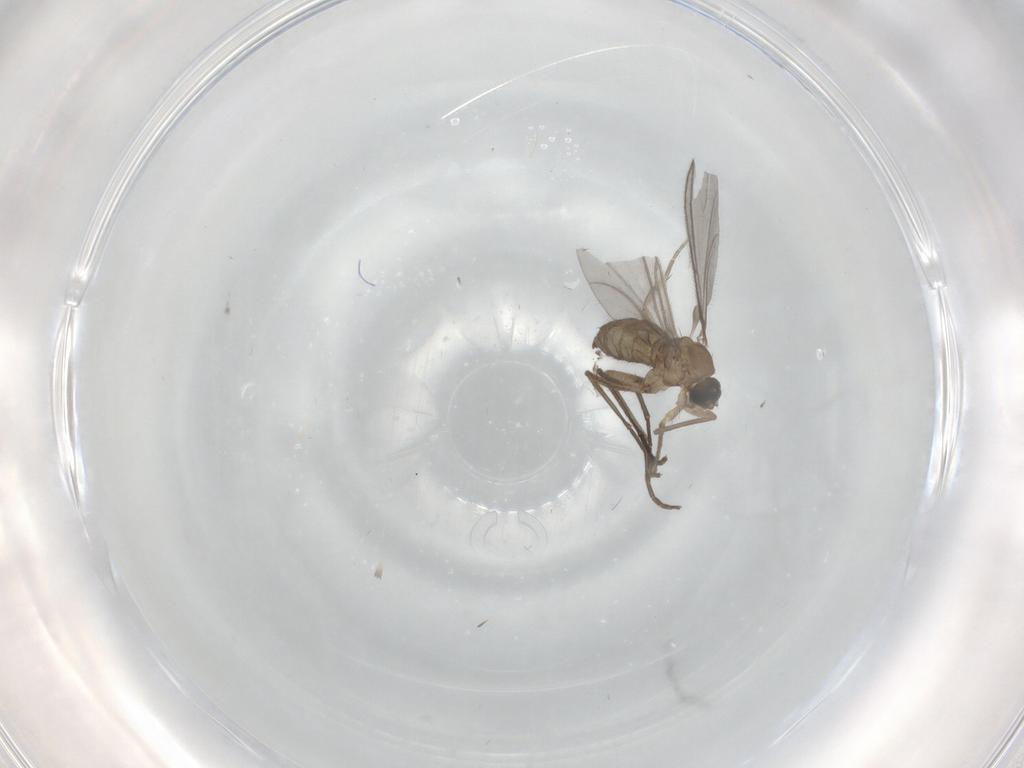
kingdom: Animalia
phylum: Arthropoda
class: Insecta
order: Diptera
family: Sciaridae
